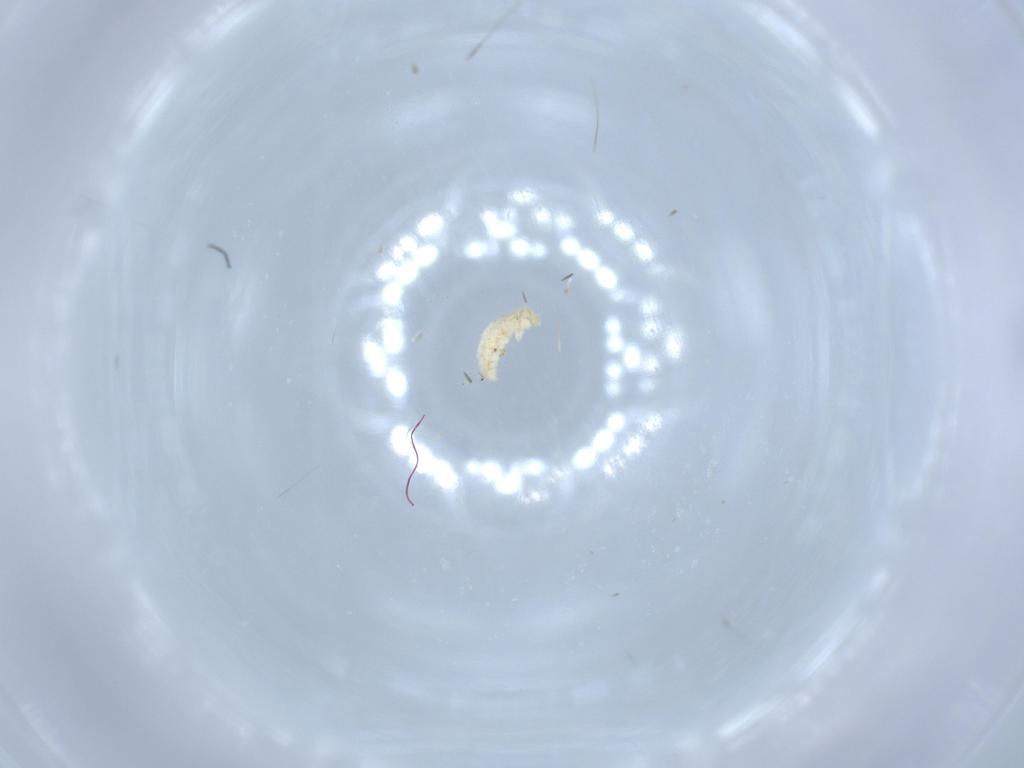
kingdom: Animalia
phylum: Arthropoda
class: Insecta
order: Coleoptera
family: Cantharidae
